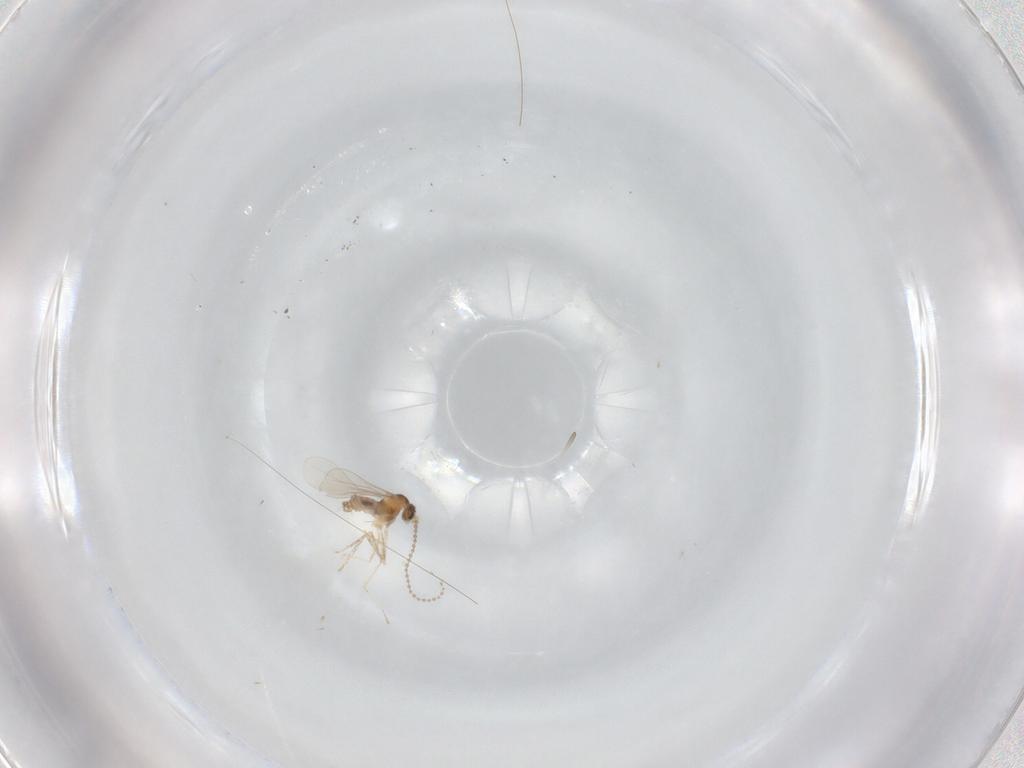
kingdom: Animalia
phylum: Arthropoda
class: Insecta
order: Diptera
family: Cecidomyiidae
